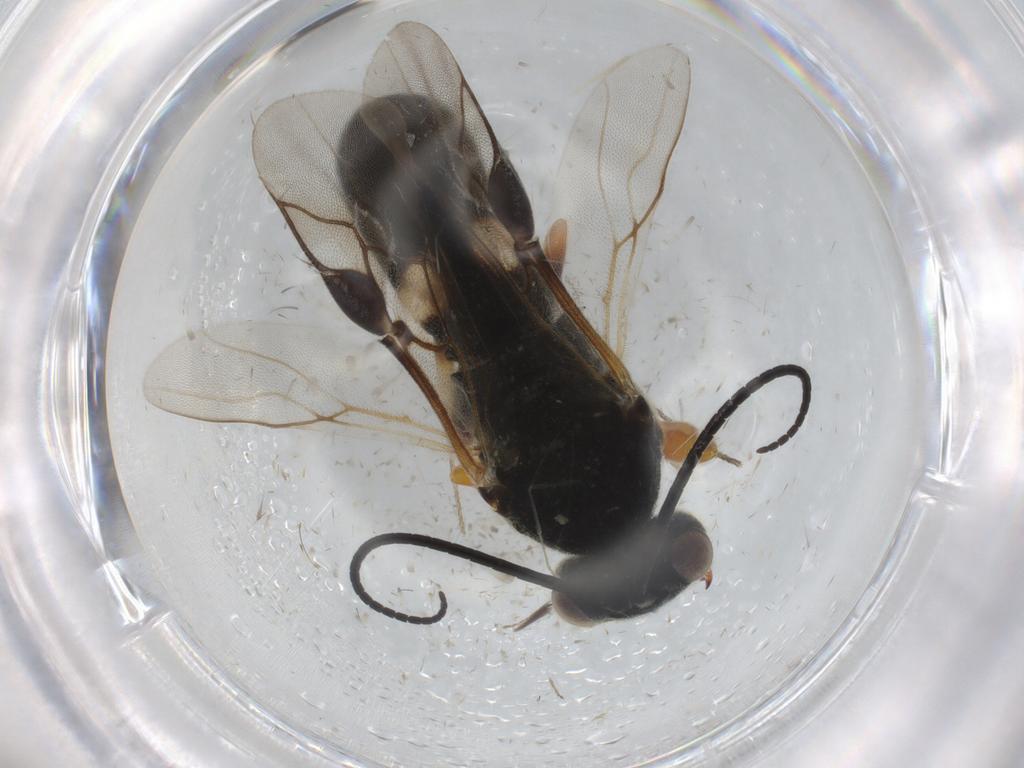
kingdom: Animalia
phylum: Arthropoda
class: Insecta
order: Hymenoptera
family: Braconidae
